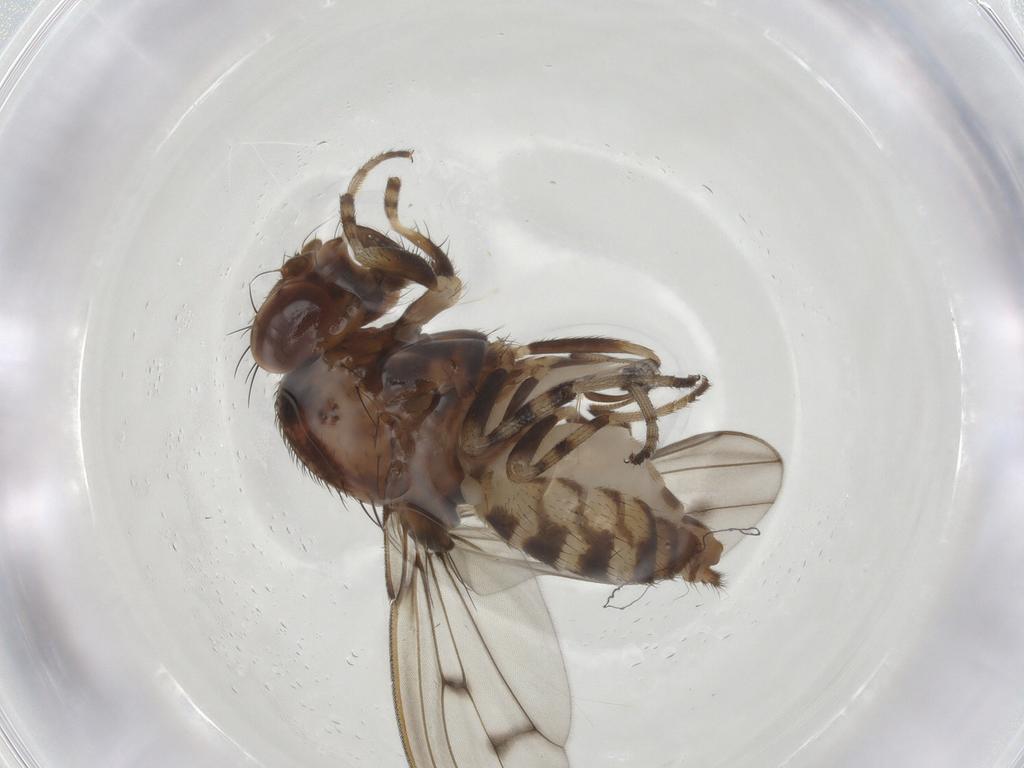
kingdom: Animalia
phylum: Arthropoda
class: Insecta
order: Diptera
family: Drosophilidae
